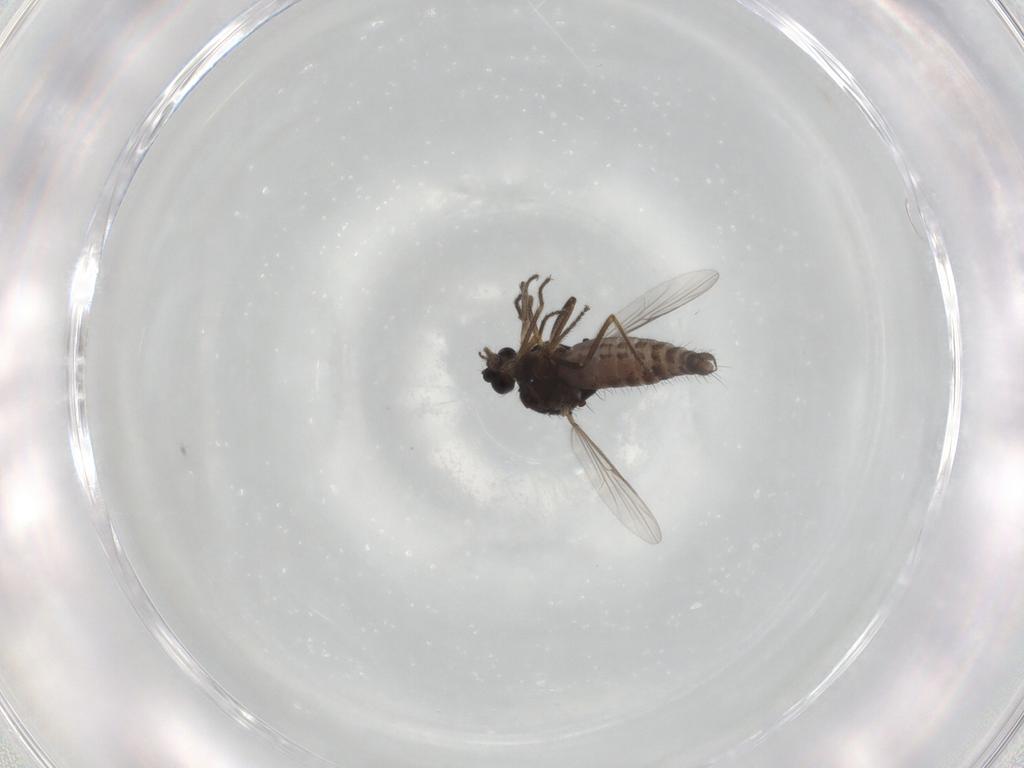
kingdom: Animalia
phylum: Arthropoda
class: Insecta
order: Diptera
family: Ceratopogonidae
